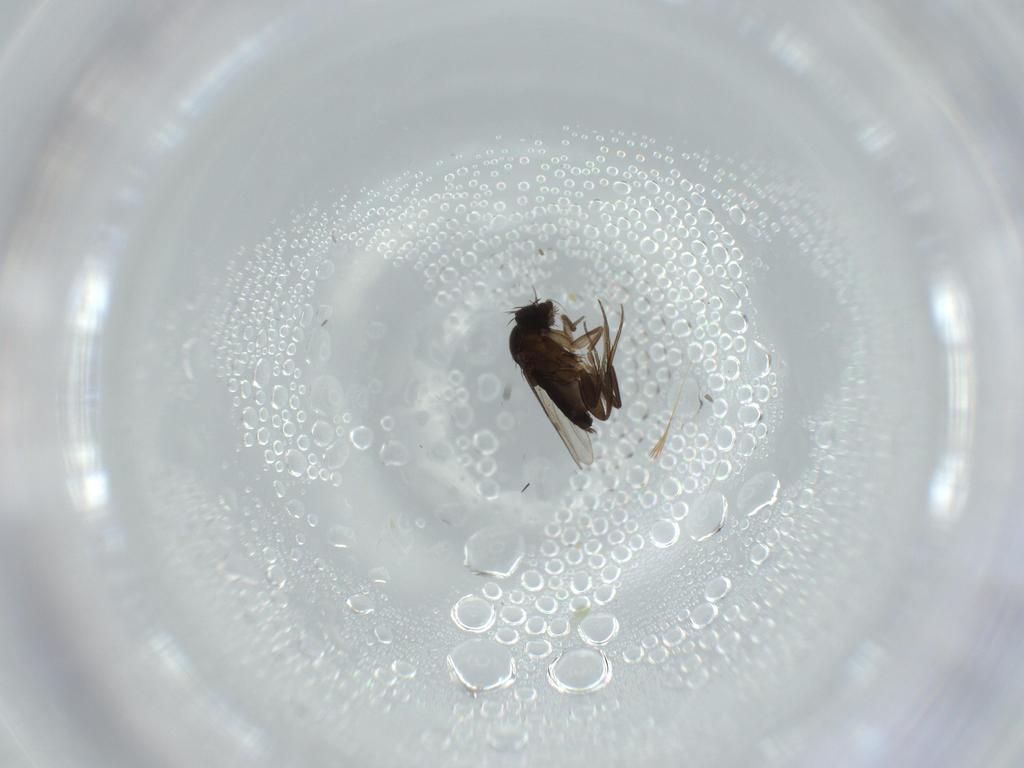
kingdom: Animalia
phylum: Arthropoda
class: Insecta
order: Diptera
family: Phoridae
